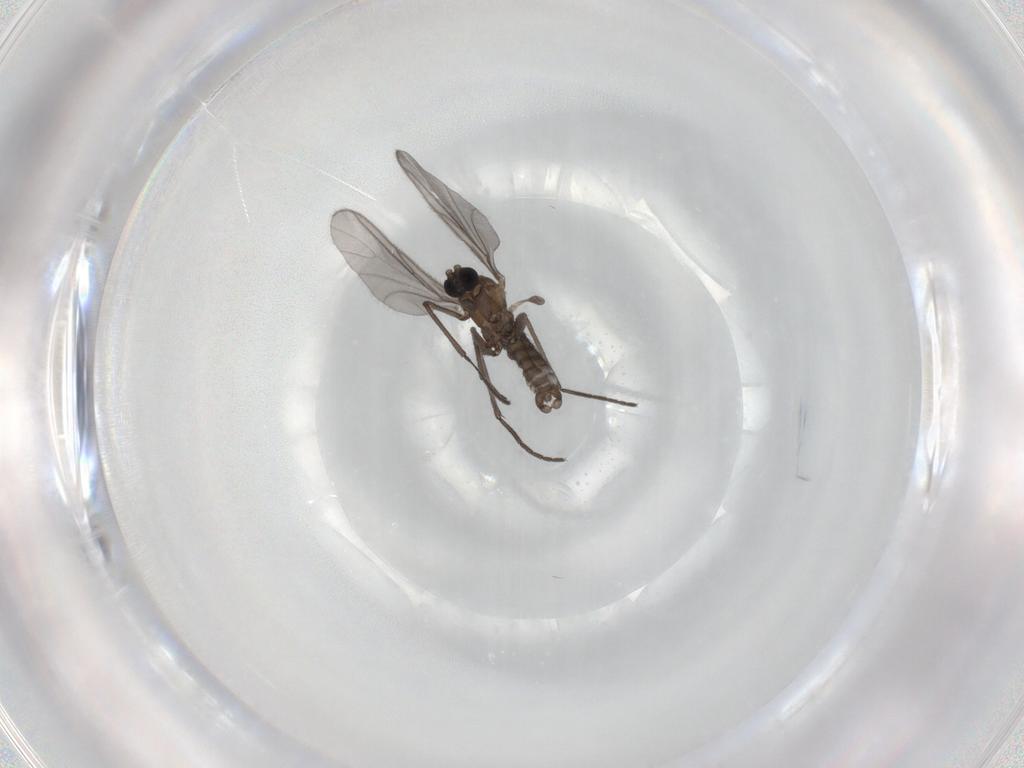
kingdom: Animalia
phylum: Arthropoda
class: Insecta
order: Diptera
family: Sciaridae
